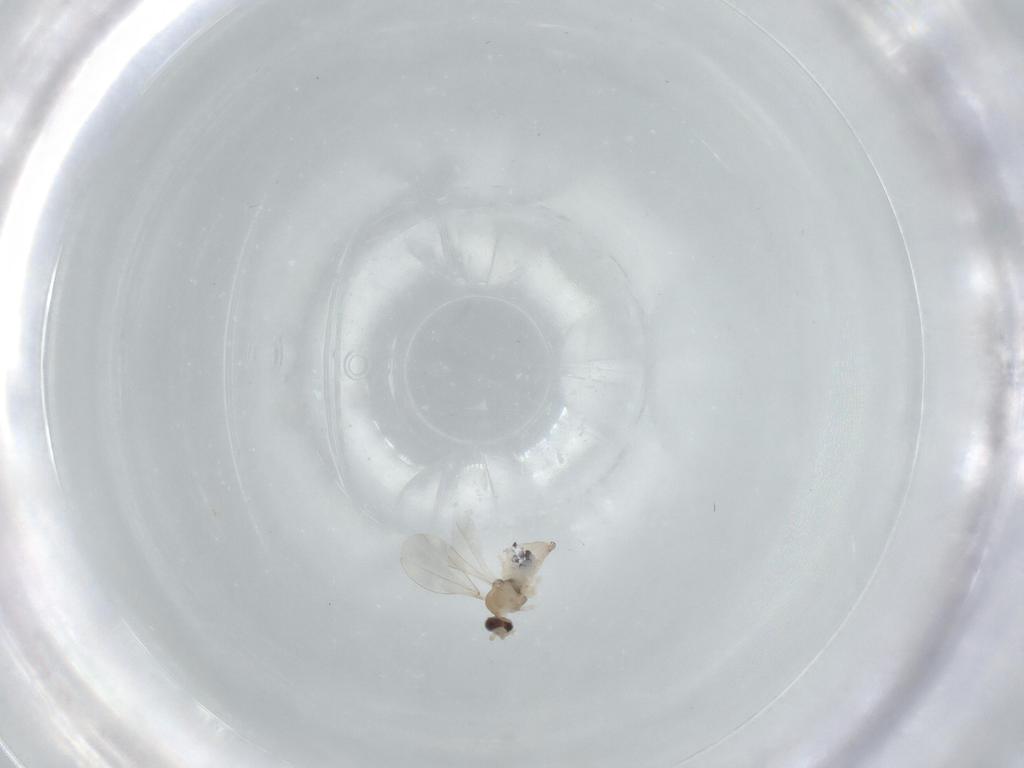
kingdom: Animalia
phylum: Arthropoda
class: Insecta
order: Diptera
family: Cecidomyiidae
